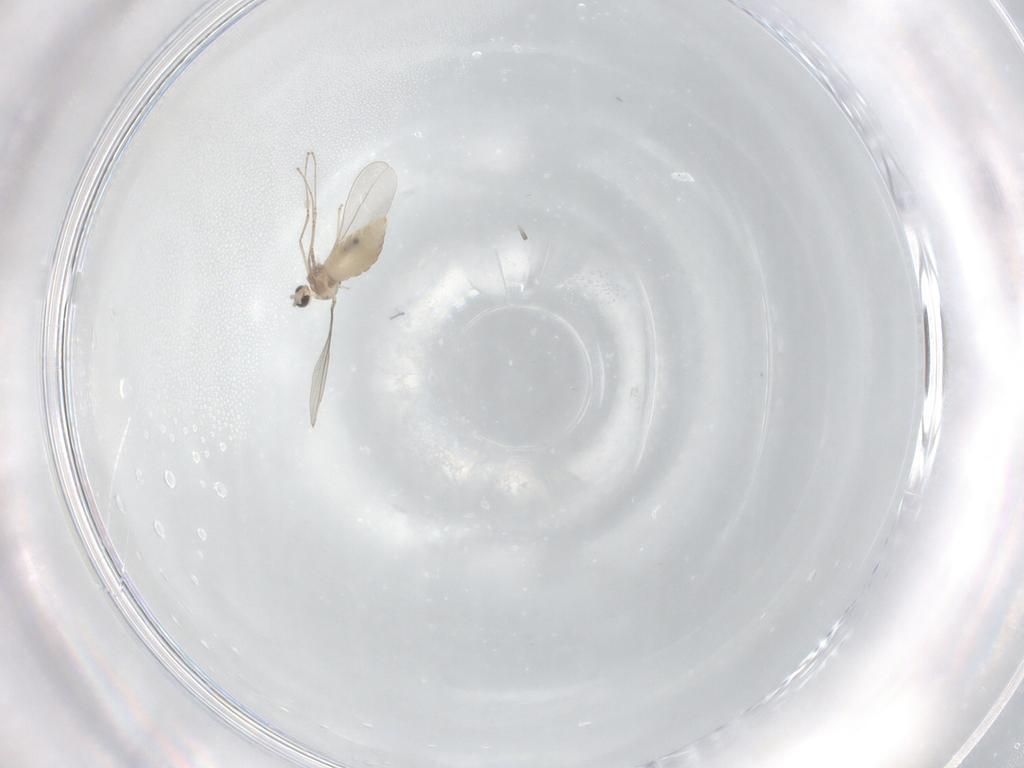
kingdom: Animalia
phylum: Arthropoda
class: Insecta
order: Diptera
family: Cecidomyiidae
